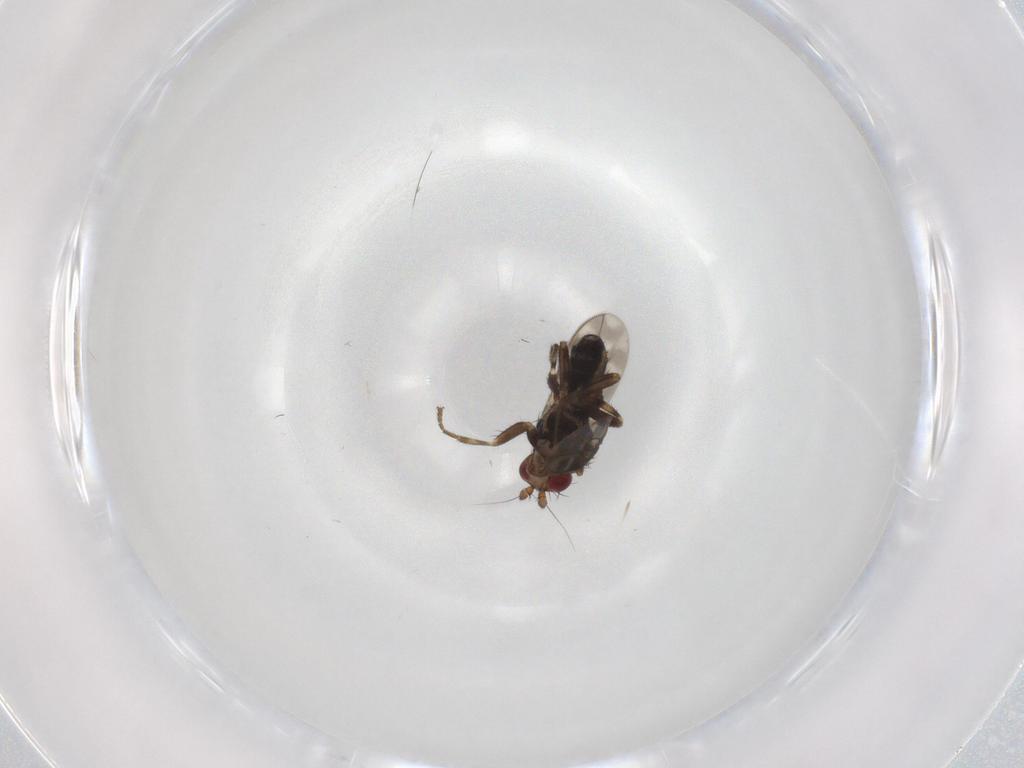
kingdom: Animalia
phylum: Arthropoda
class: Insecta
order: Diptera
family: Sphaeroceridae
